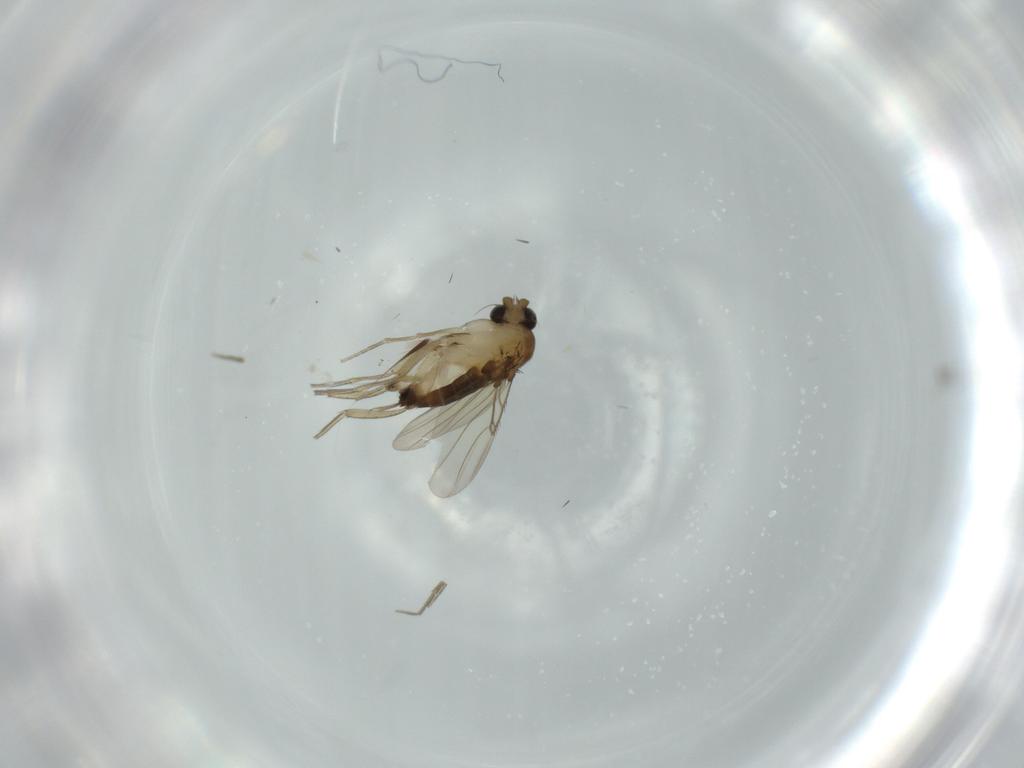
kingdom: Animalia
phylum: Arthropoda
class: Insecta
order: Diptera
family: Phoridae
